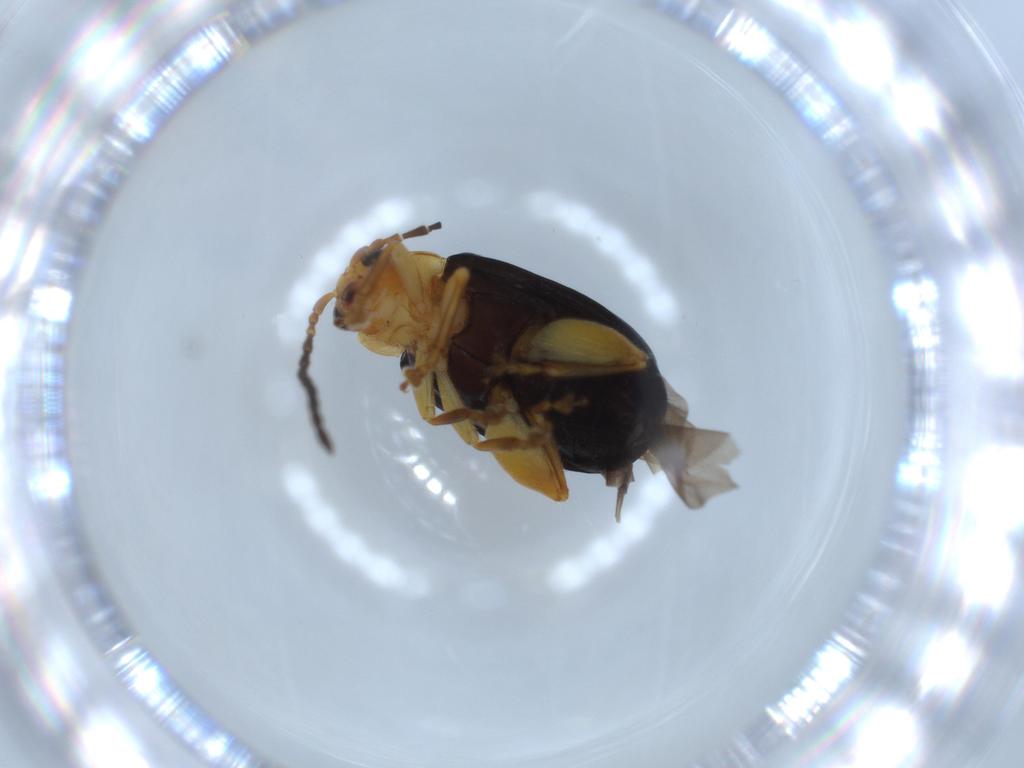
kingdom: Animalia
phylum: Arthropoda
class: Insecta
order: Coleoptera
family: Chrysomelidae
